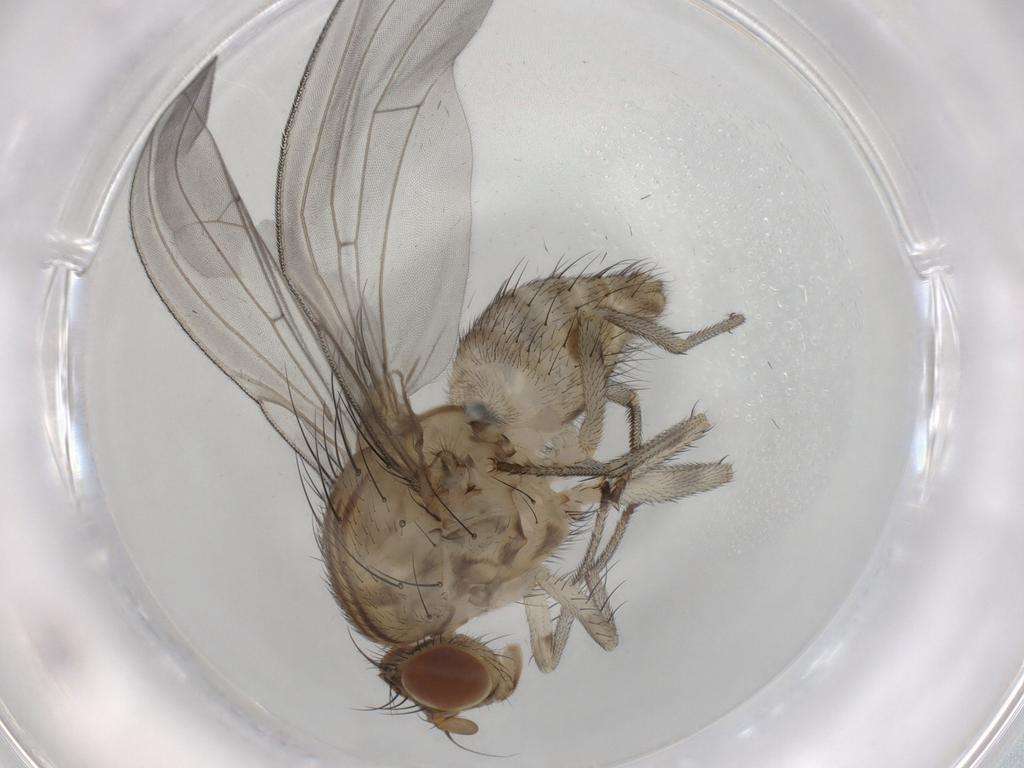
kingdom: Animalia
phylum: Arthropoda
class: Insecta
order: Diptera
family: Phoridae
